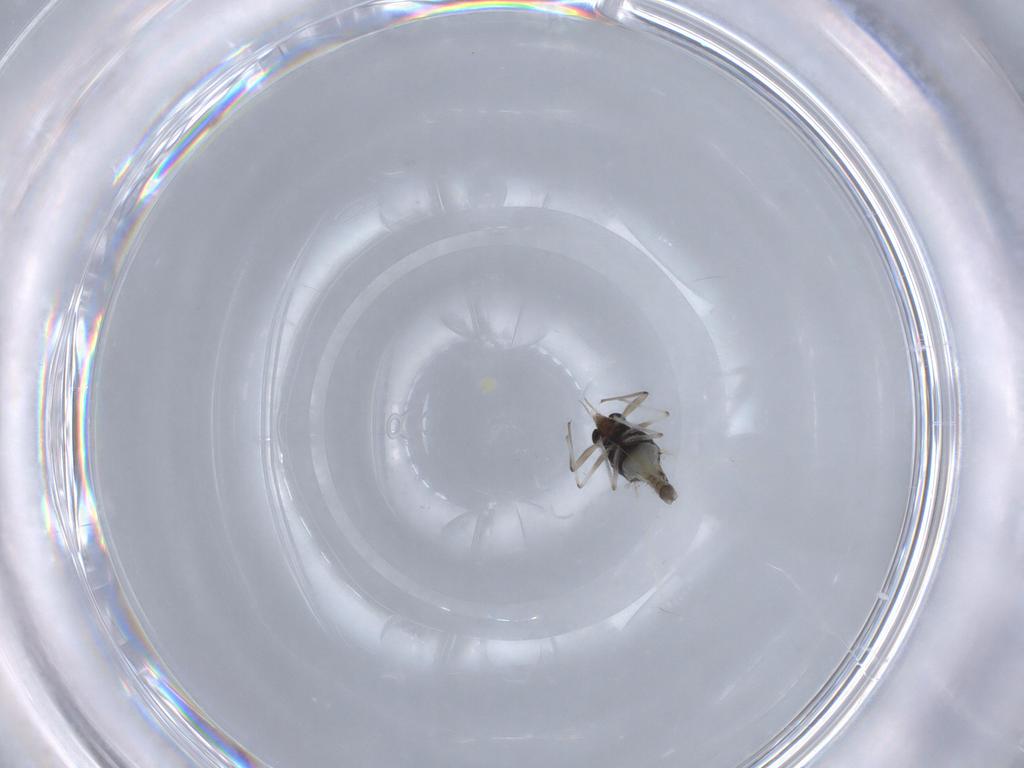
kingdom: Animalia
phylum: Arthropoda
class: Insecta
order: Diptera
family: Chironomidae
